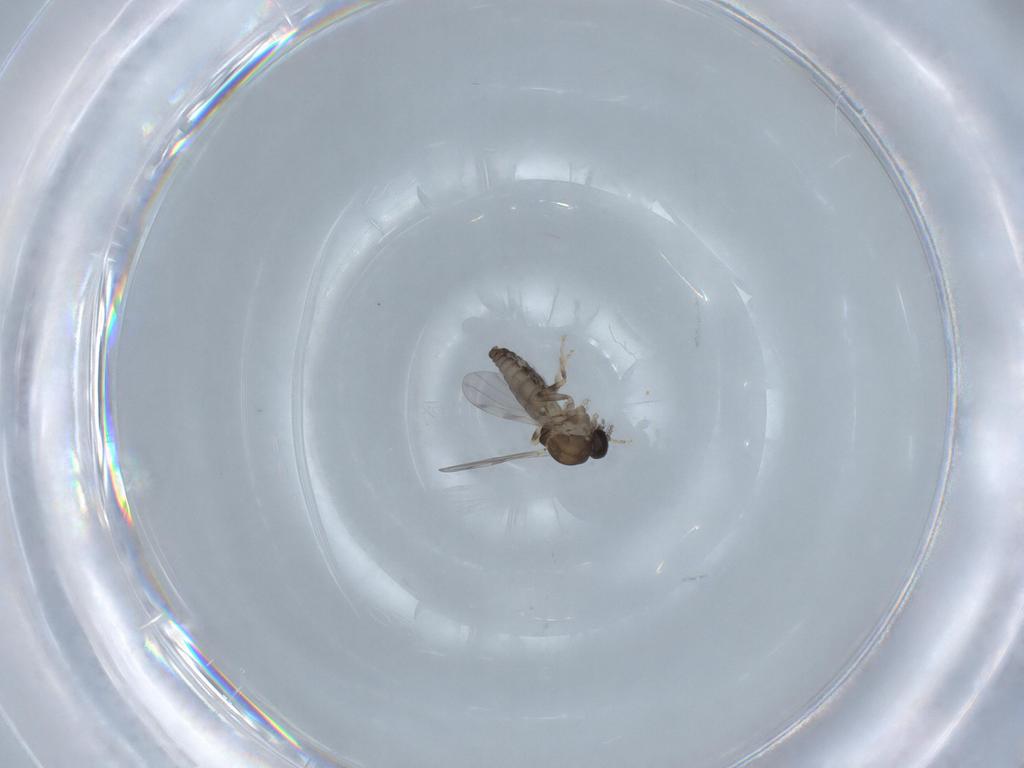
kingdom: Animalia
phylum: Arthropoda
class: Insecta
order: Diptera
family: Ceratopogonidae
